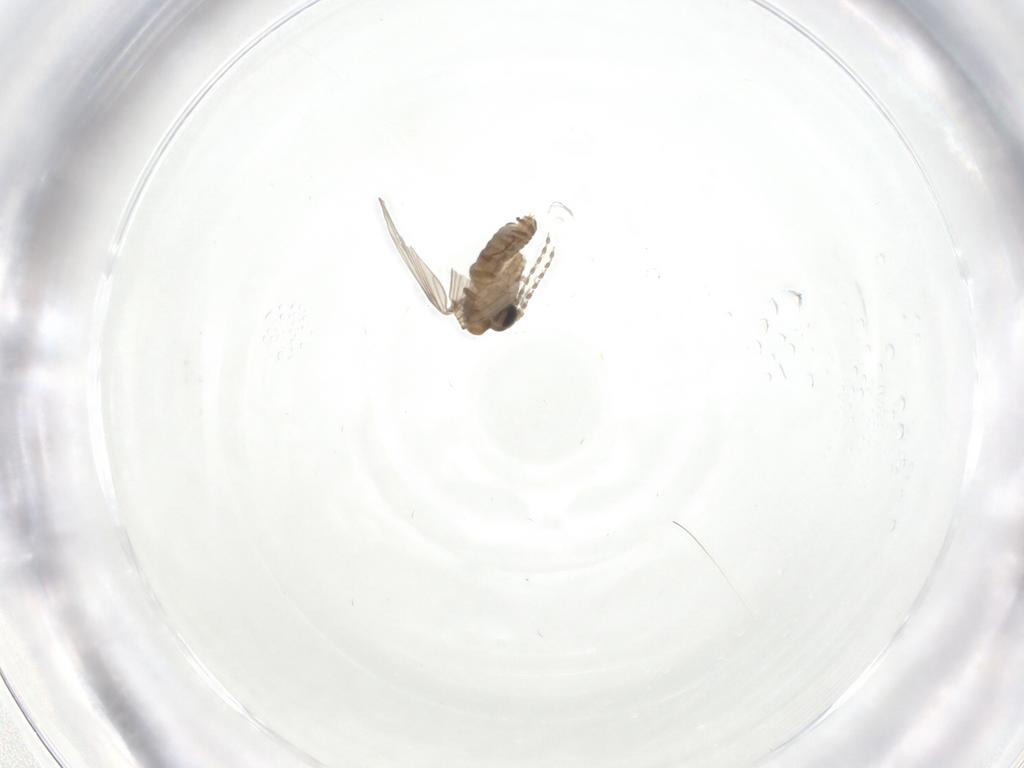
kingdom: Animalia
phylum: Arthropoda
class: Insecta
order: Diptera
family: Psychodidae
